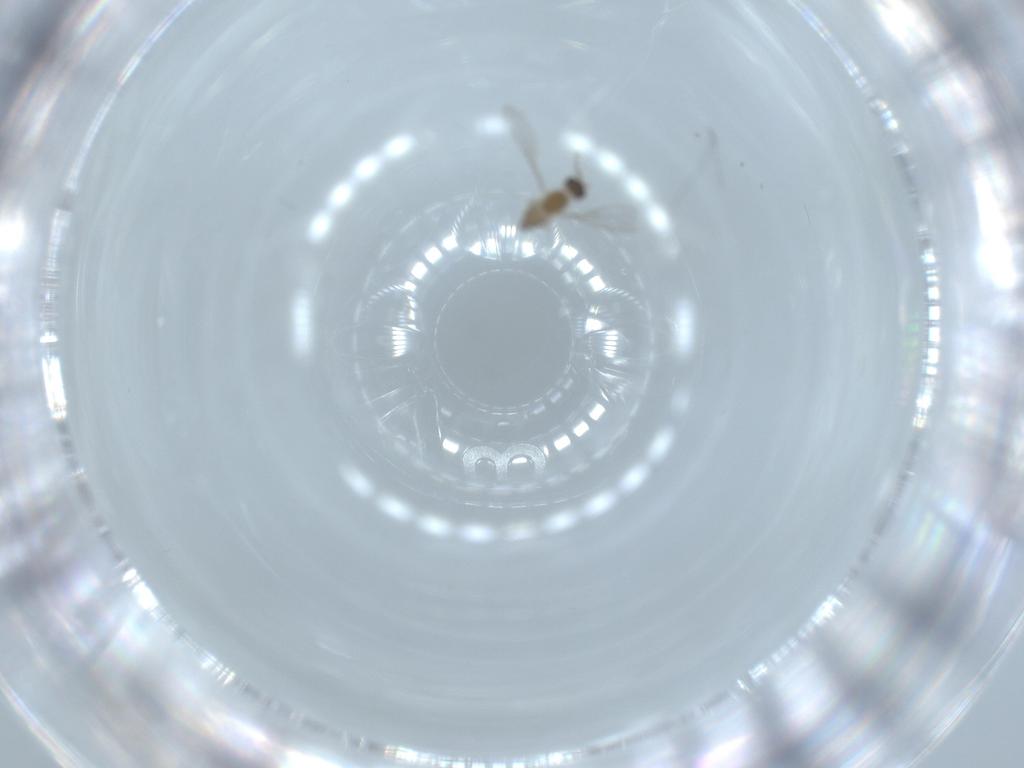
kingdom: Animalia
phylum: Arthropoda
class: Insecta
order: Diptera
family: Cecidomyiidae
